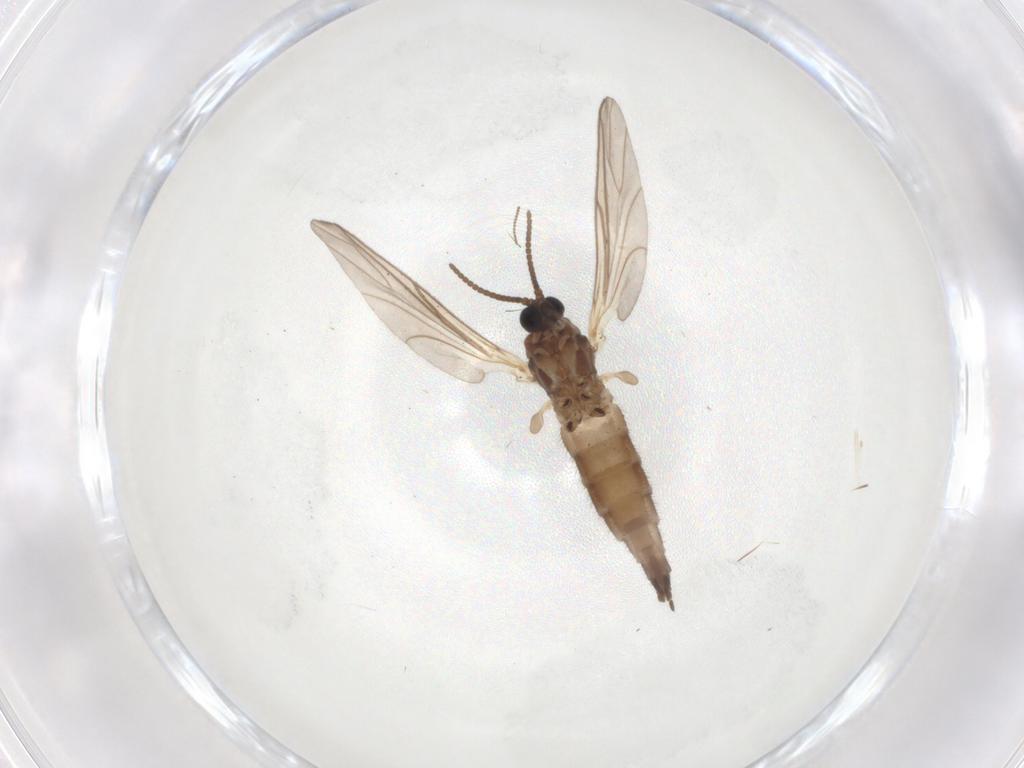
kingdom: Animalia
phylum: Arthropoda
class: Insecta
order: Diptera
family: Sciaridae
